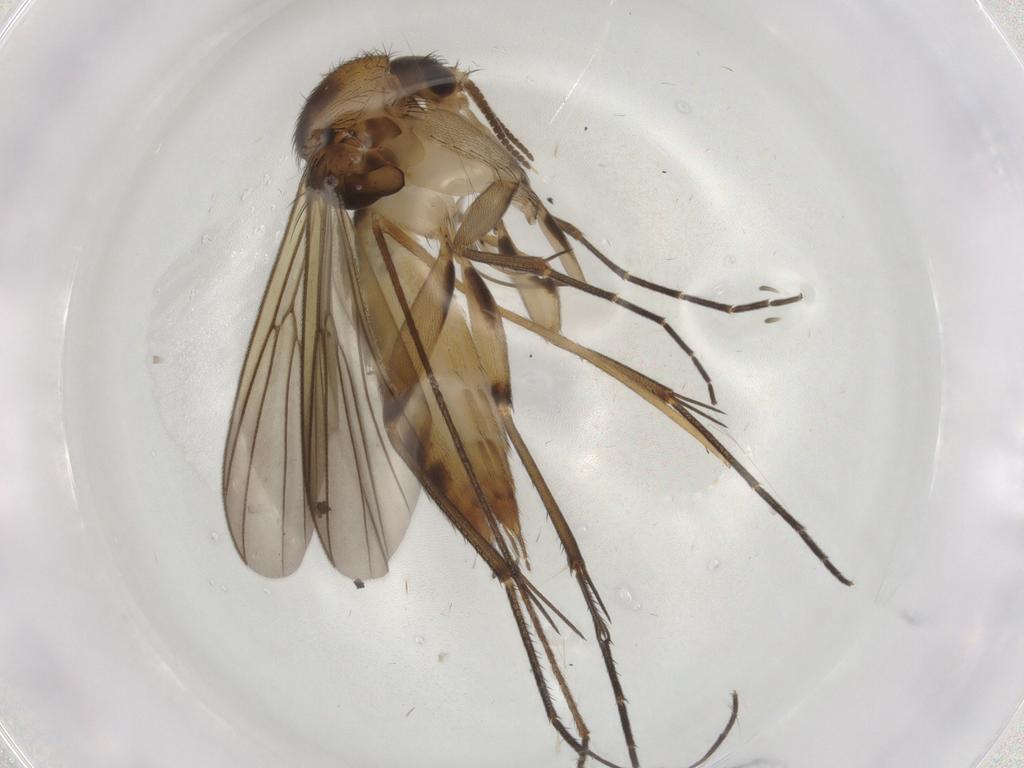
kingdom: Animalia
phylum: Arthropoda
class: Insecta
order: Diptera
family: Mycetophilidae
